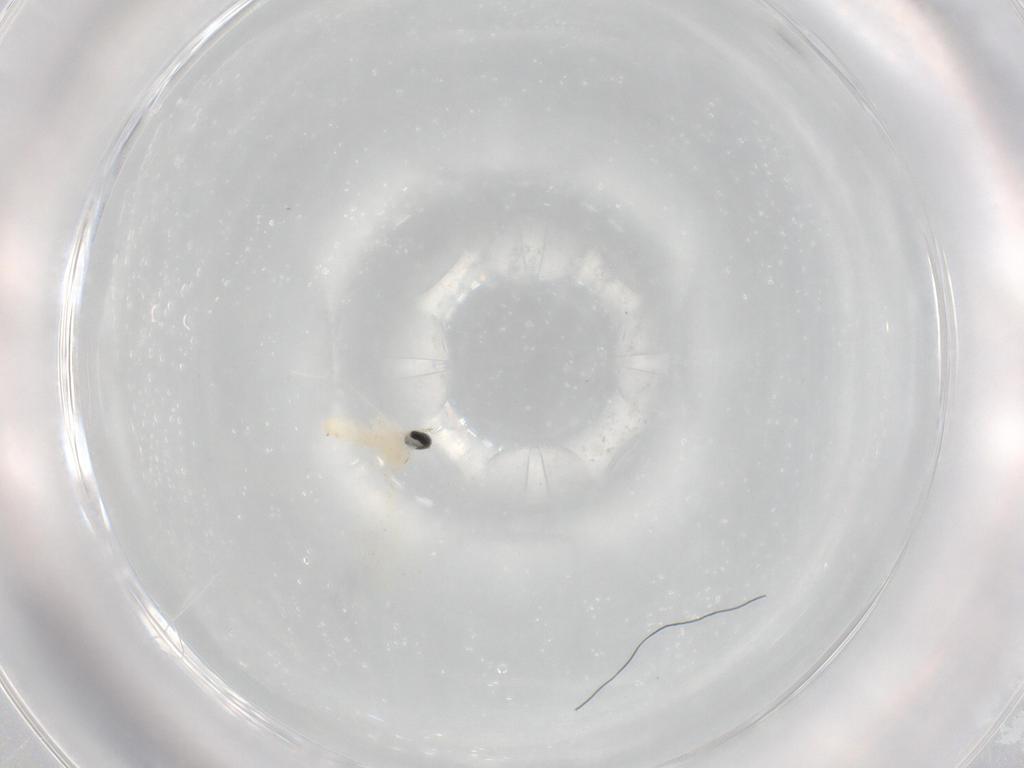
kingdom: Animalia
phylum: Arthropoda
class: Insecta
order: Diptera
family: Cecidomyiidae
